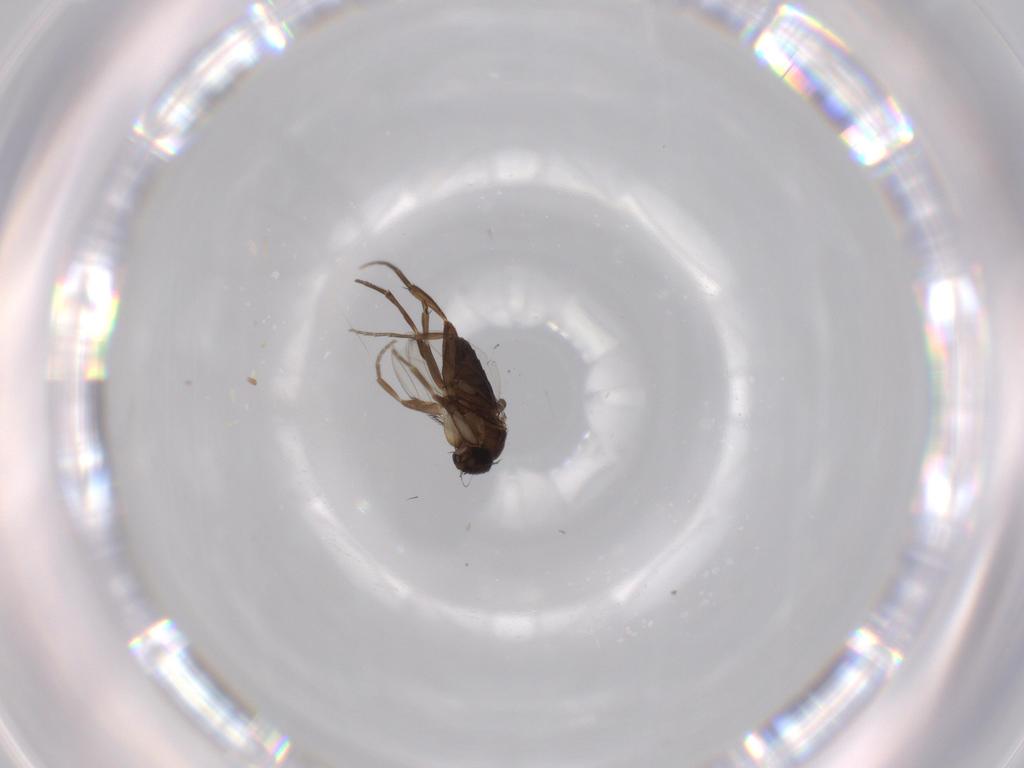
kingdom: Animalia
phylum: Arthropoda
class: Insecta
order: Diptera
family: Phoridae
